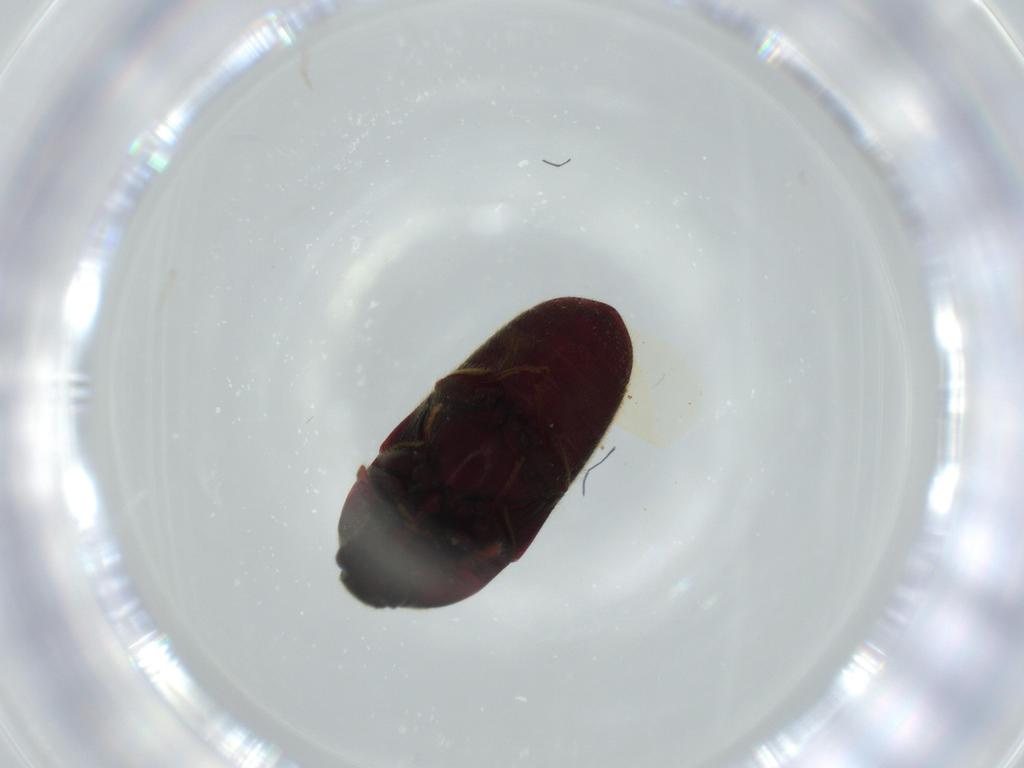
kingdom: Animalia
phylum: Arthropoda
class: Insecta
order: Coleoptera
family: Throscidae
